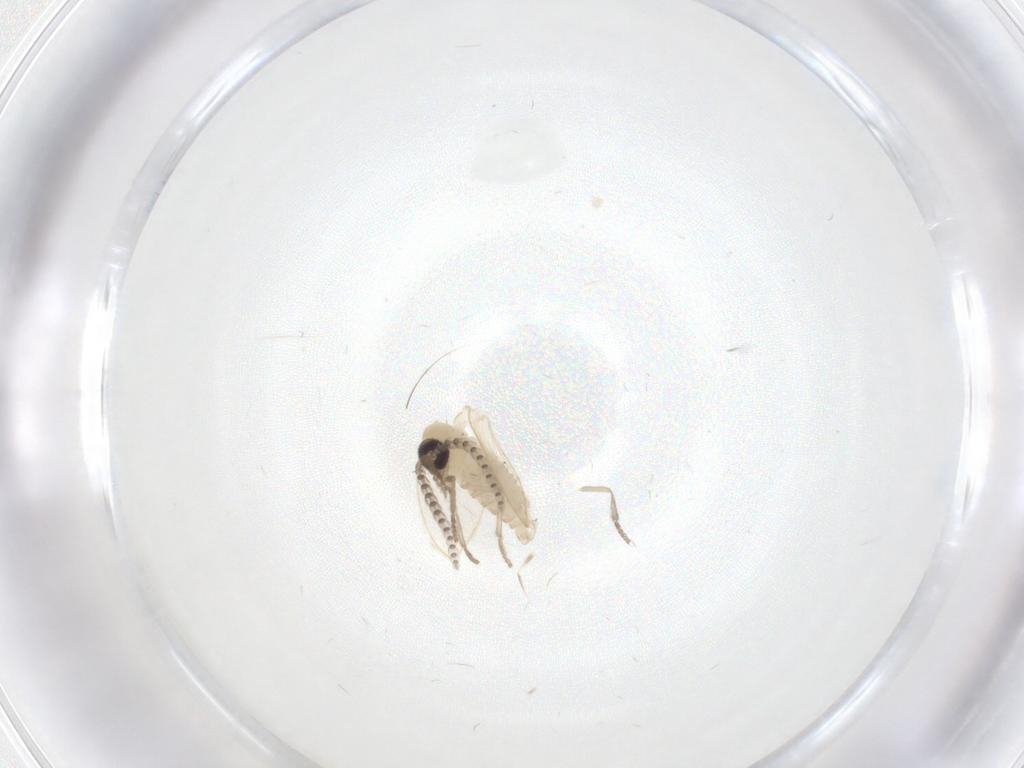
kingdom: Animalia
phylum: Arthropoda
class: Insecta
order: Diptera
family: Psychodidae
